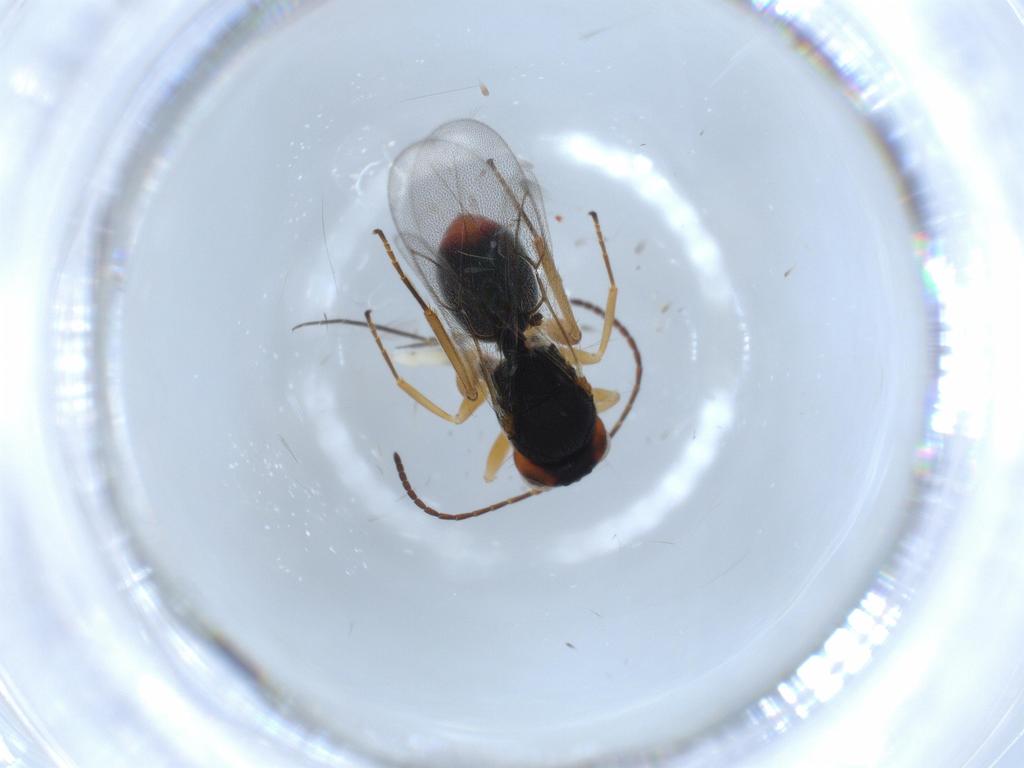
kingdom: Animalia
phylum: Arthropoda
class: Insecta
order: Hymenoptera
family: Cynipidae
